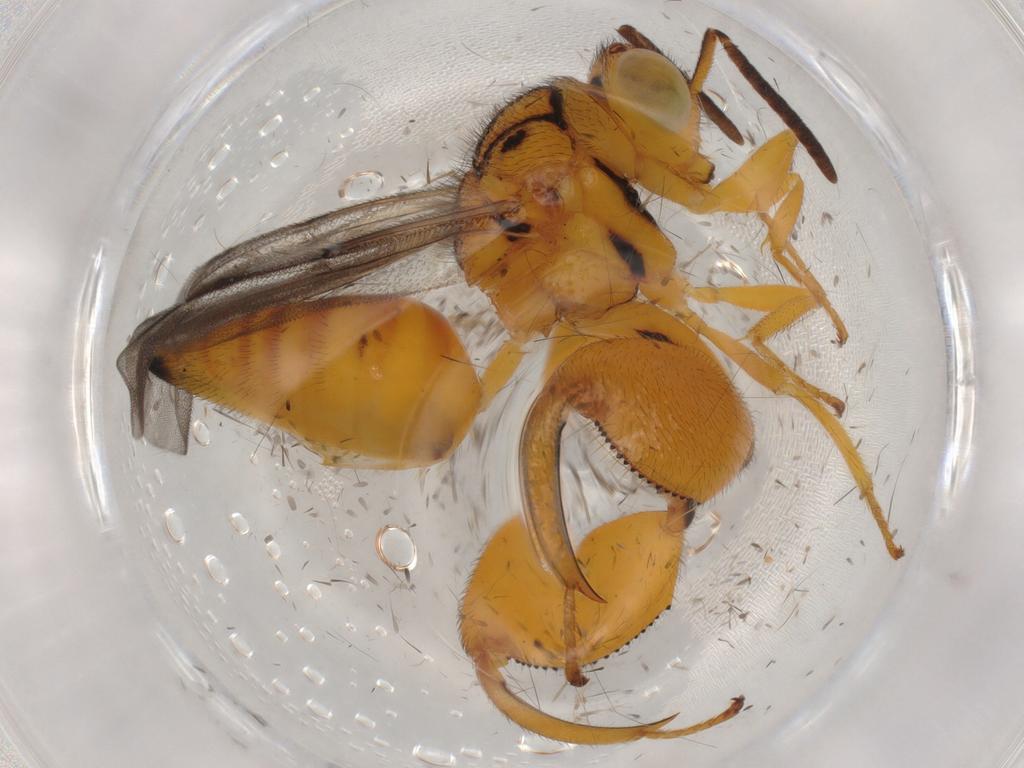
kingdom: Animalia
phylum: Arthropoda
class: Insecta
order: Hymenoptera
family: Chalcididae
